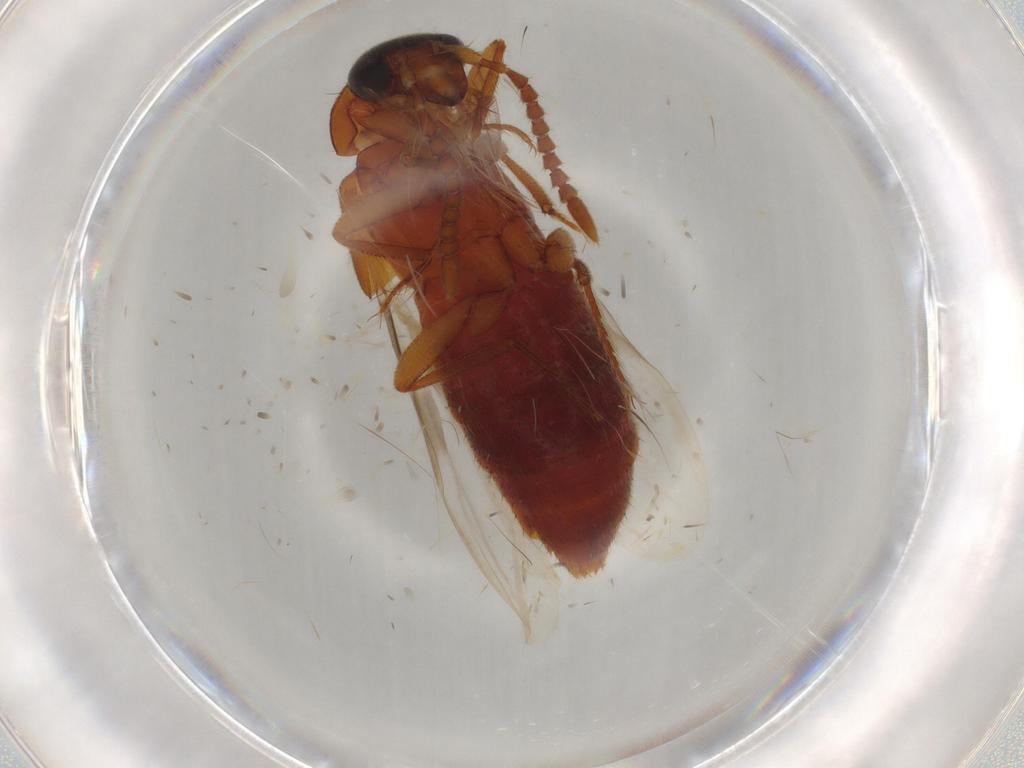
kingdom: Animalia
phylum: Arthropoda
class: Insecta
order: Coleoptera
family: Staphylinidae
